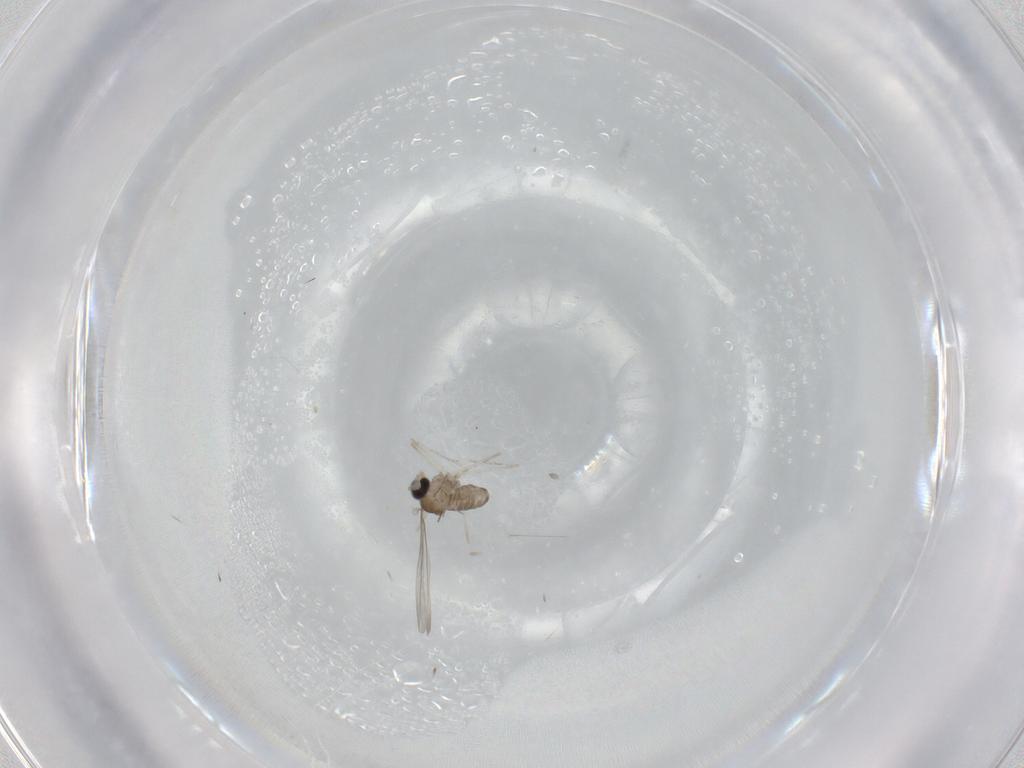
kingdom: Animalia
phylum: Arthropoda
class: Insecta
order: Diptera
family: Cecidomyiidae
